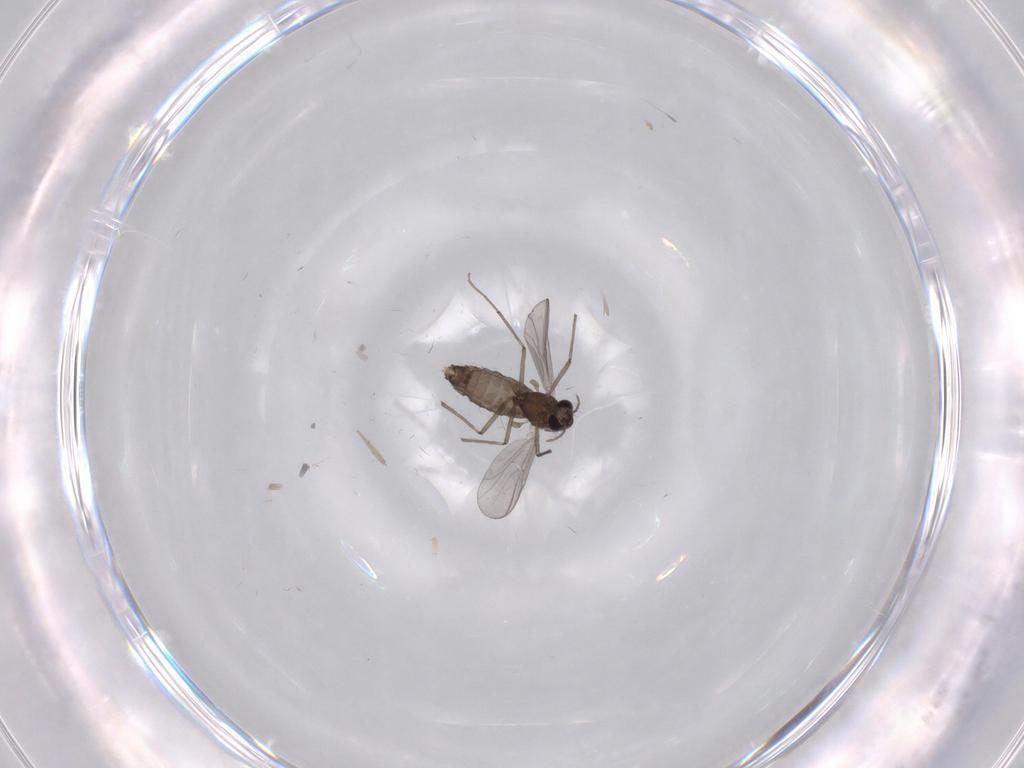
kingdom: Animalia
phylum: Arthropoda
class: Insecta
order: Diptera
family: Chironomidae
